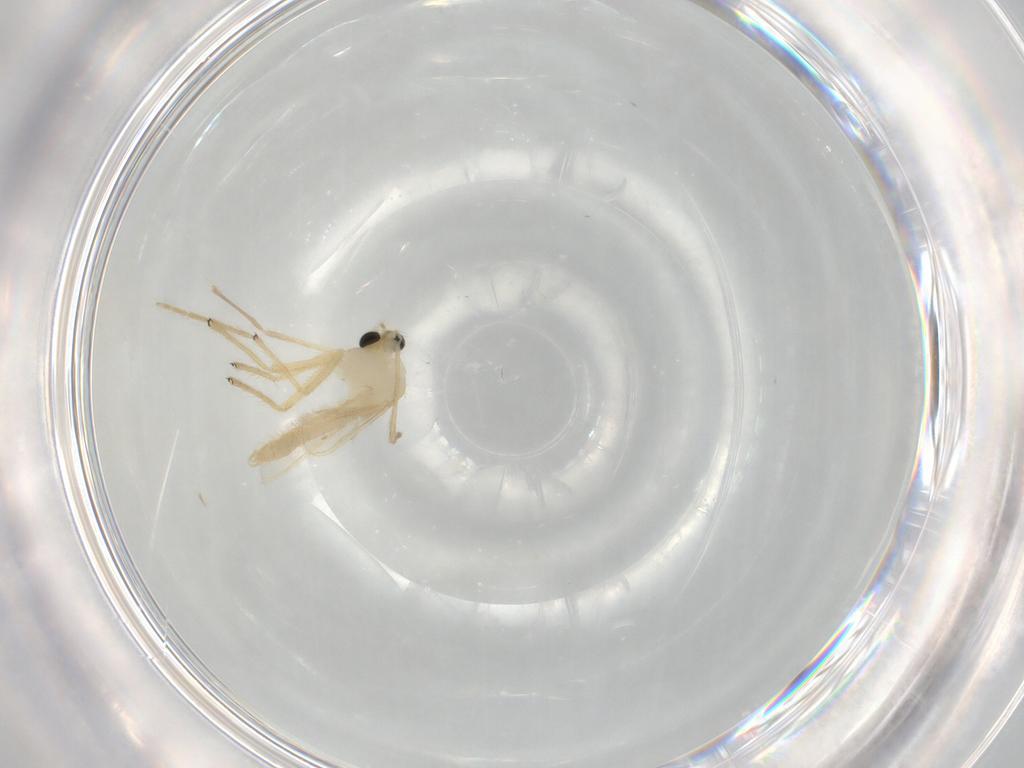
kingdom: Animalia
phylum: Arthropoda
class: Insecta
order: Diptera
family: Chironomidae
